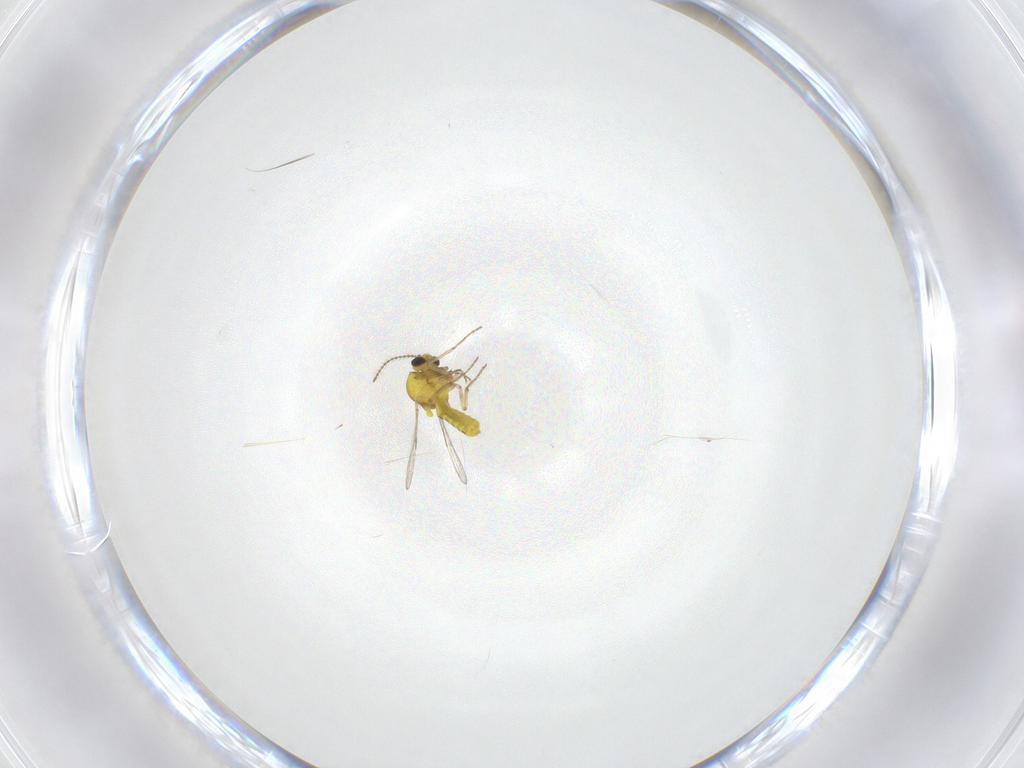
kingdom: Animalia
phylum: Arthropoda
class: Insecta
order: Diptera
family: Ceratopogonidae
